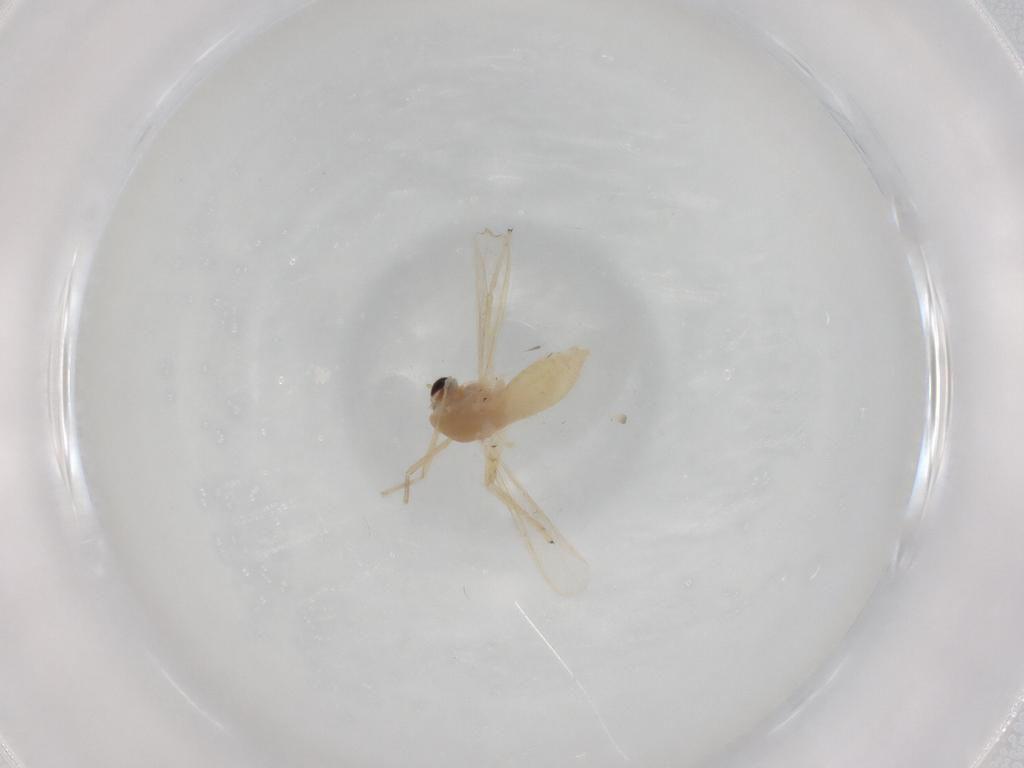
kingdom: Animalia
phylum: Arthropoda
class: Insecta
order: Diptera
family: Chironomidae
